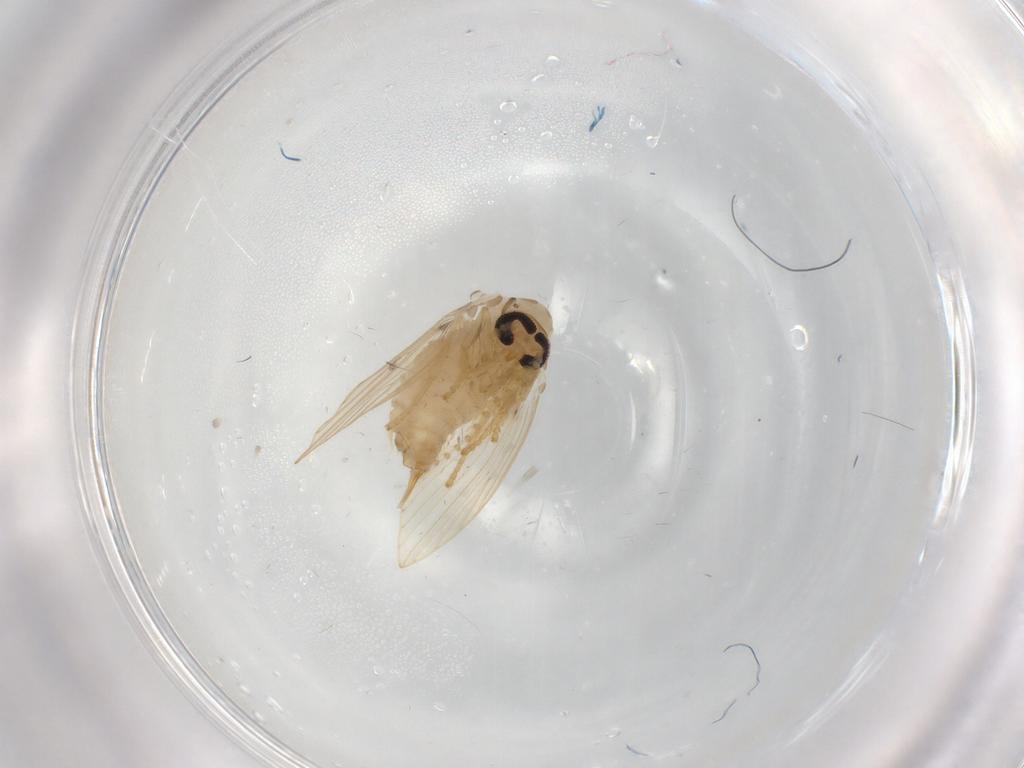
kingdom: Animalia
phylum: Arthropoda
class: Insecta
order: Diptera
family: Psychodidae
